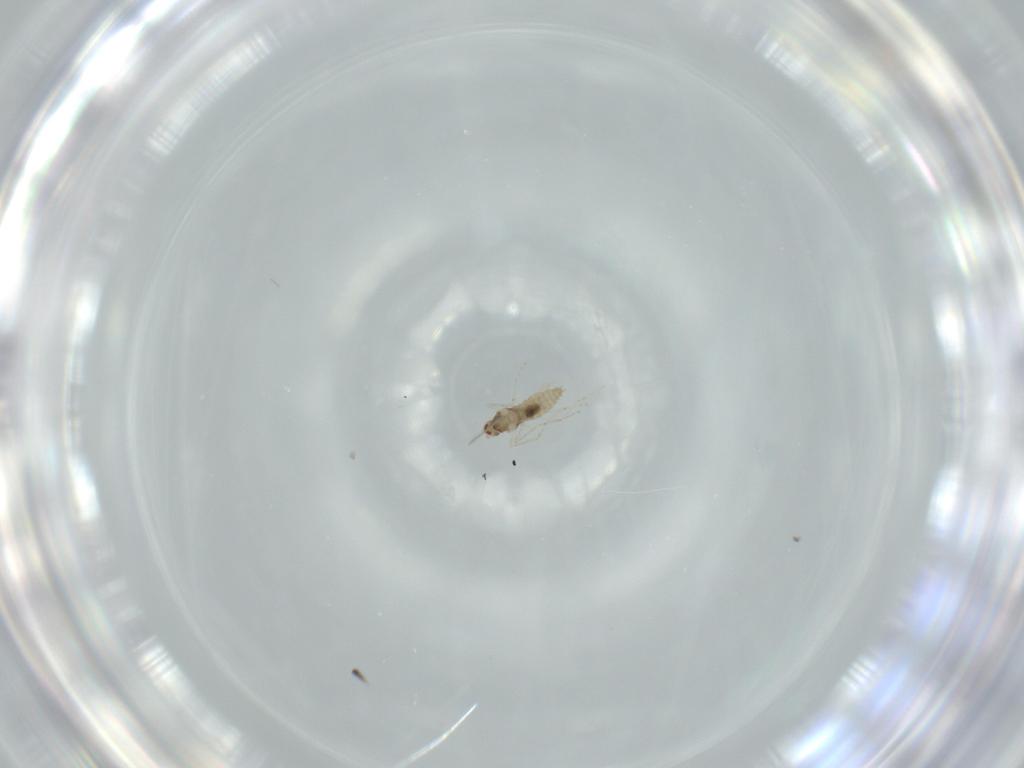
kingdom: Animalia
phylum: Arthropoda
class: Insecta
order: Diptera
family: Cecidomyiidae
